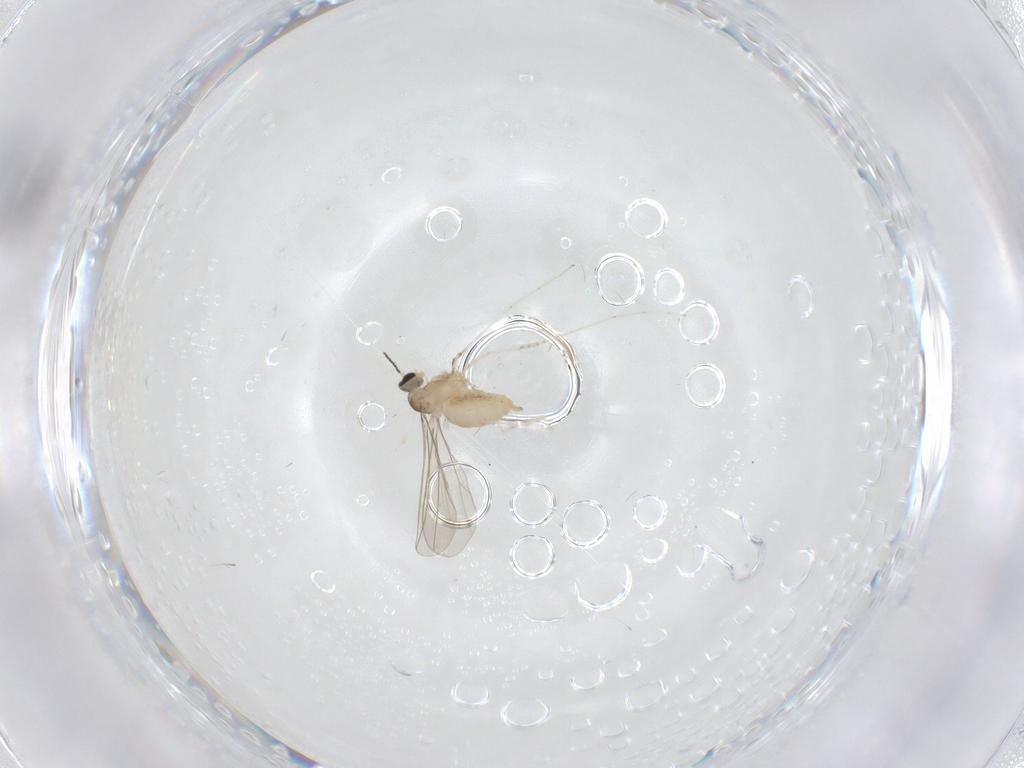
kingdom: Animalia
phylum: Arthropoda
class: Insecta
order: Diptera
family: Cecidomyiidae
